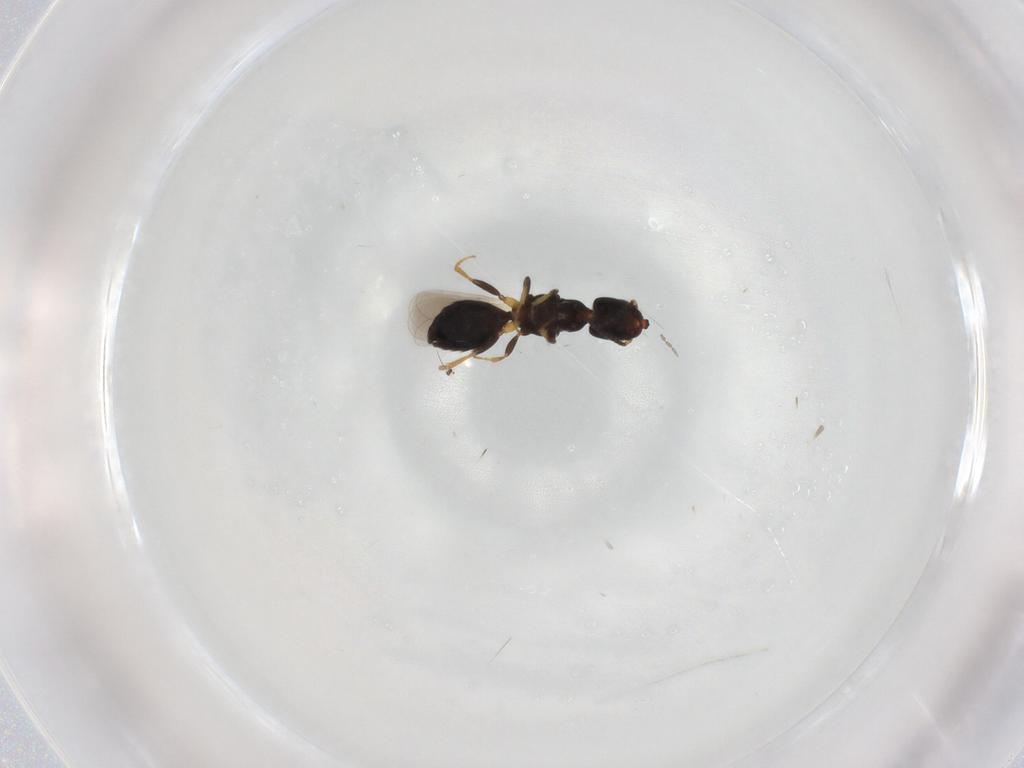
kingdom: Animalia
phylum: Arthropoda
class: Insecta
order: Hymenoptera
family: Bethylidae
